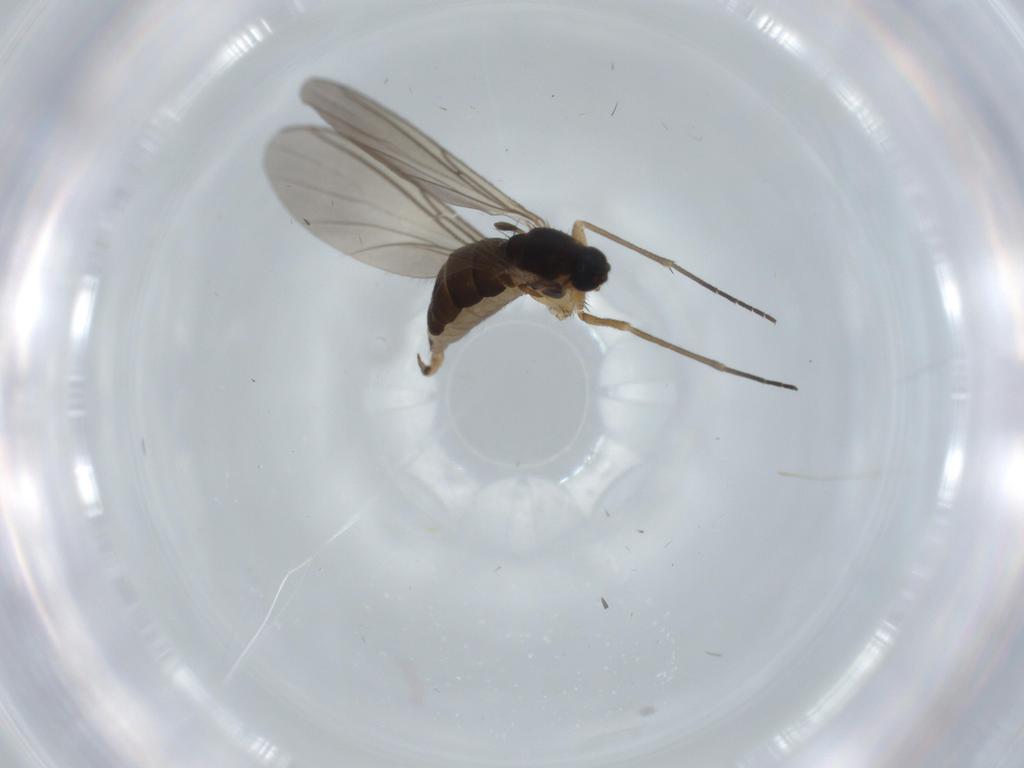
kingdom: Animalia
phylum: Arthropoda
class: Insecta
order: Diptera
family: Sciaridae
